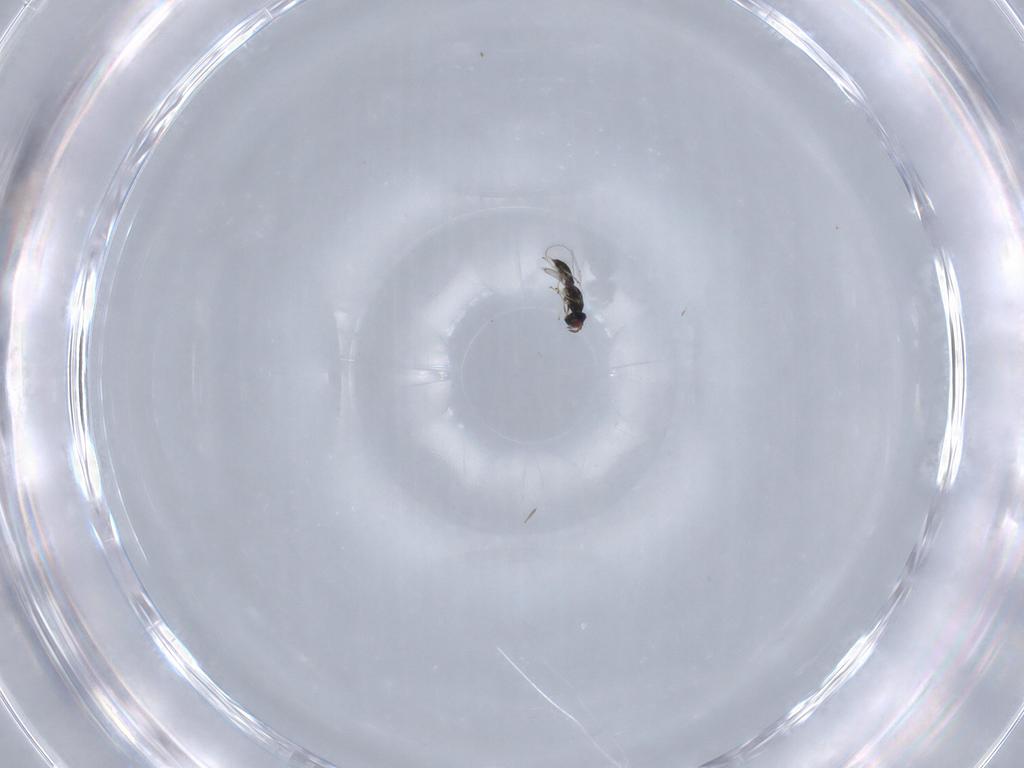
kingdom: Animalia
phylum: Arthropoda
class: Insecta
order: Hymenoptera
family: Eulophidae
